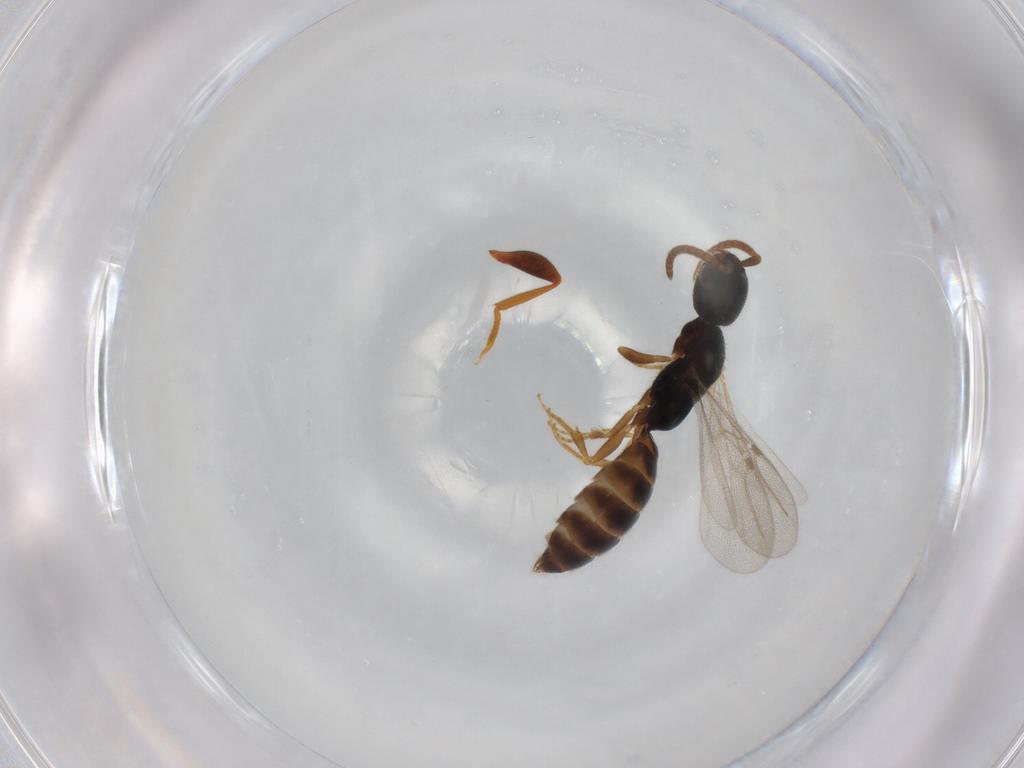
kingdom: Animalia
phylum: Arthropoda
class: Insecta
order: Hymenoptera
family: Bethylidae
